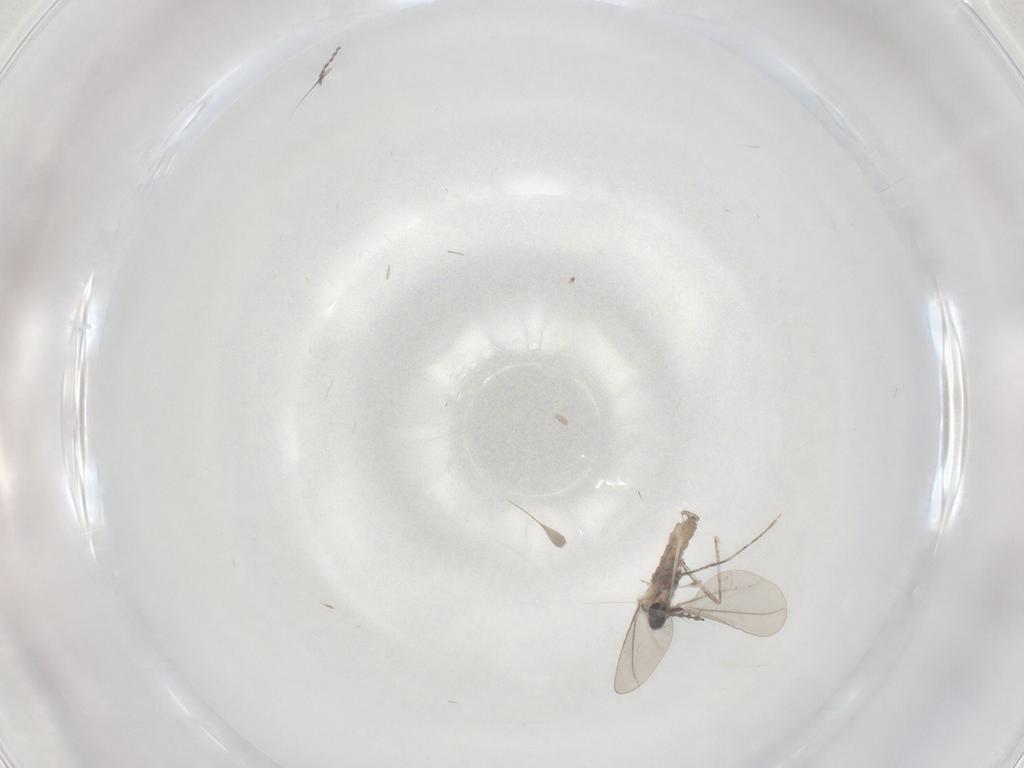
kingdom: Animalia
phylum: Arthropoda
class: Insecta
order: Diptera
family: Cecidomyiidae
